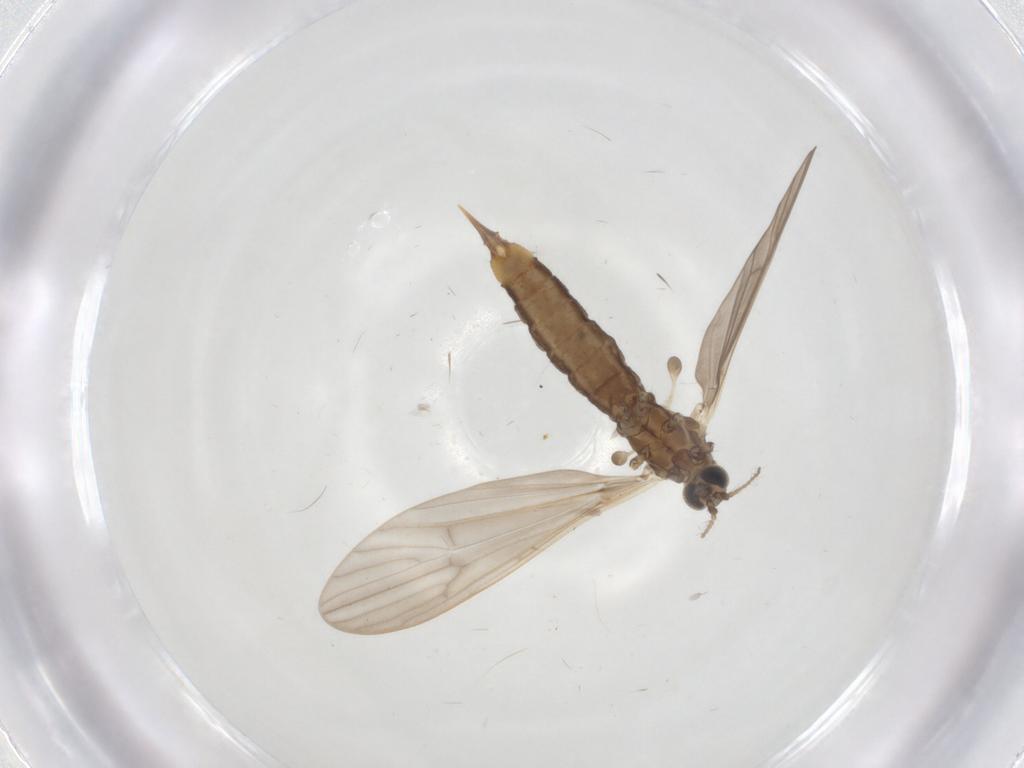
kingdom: Animalia
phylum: Arthropoda
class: Insecta
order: Diptera
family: Limoniidae
